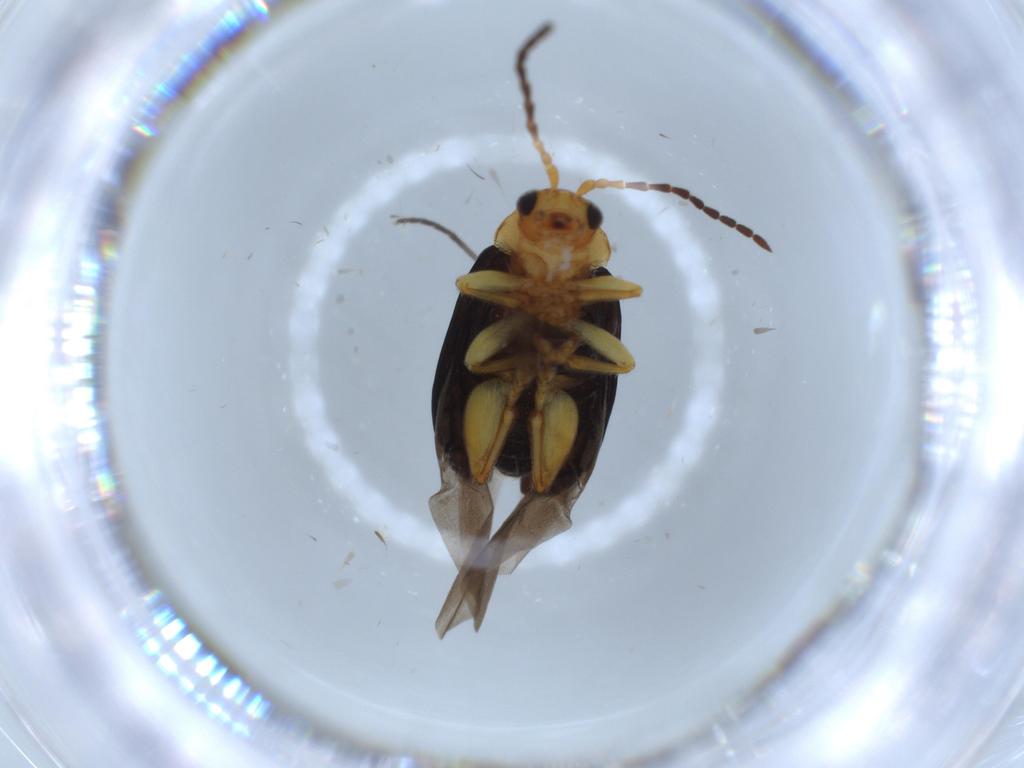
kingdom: Animalia
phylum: Arthropoda
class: Insecta
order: Coleoptera
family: Chrysomelidae
